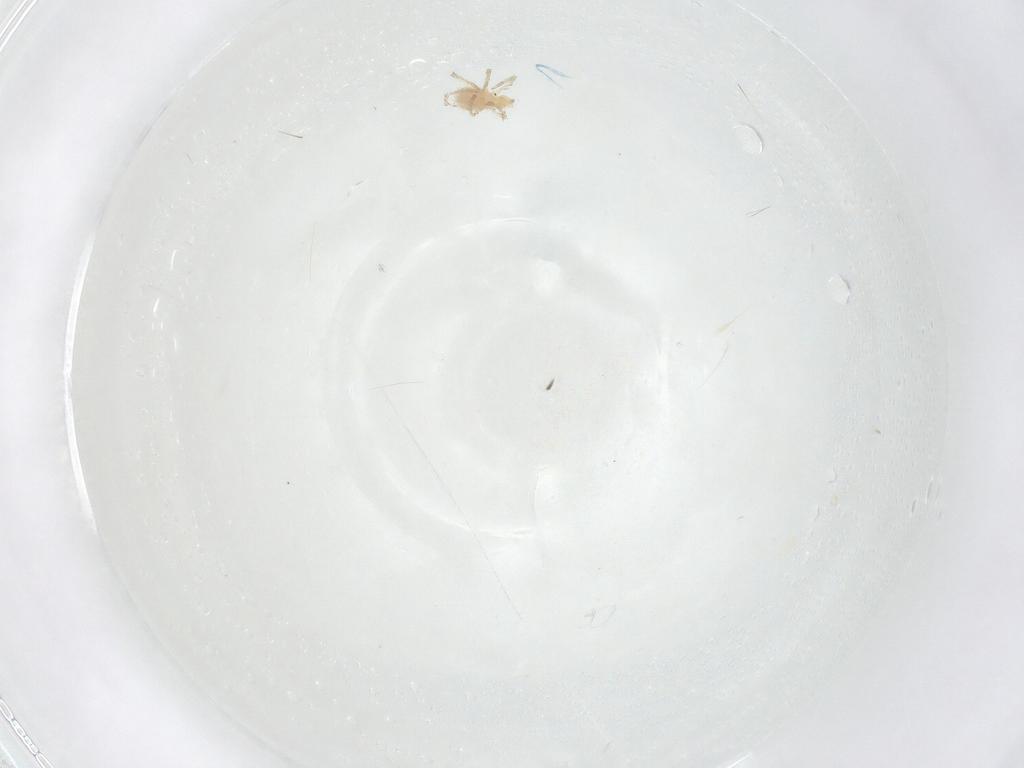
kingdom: Animalia
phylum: Arthropoda
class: Arachnida
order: Trombidiformes
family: Erythraeidae
